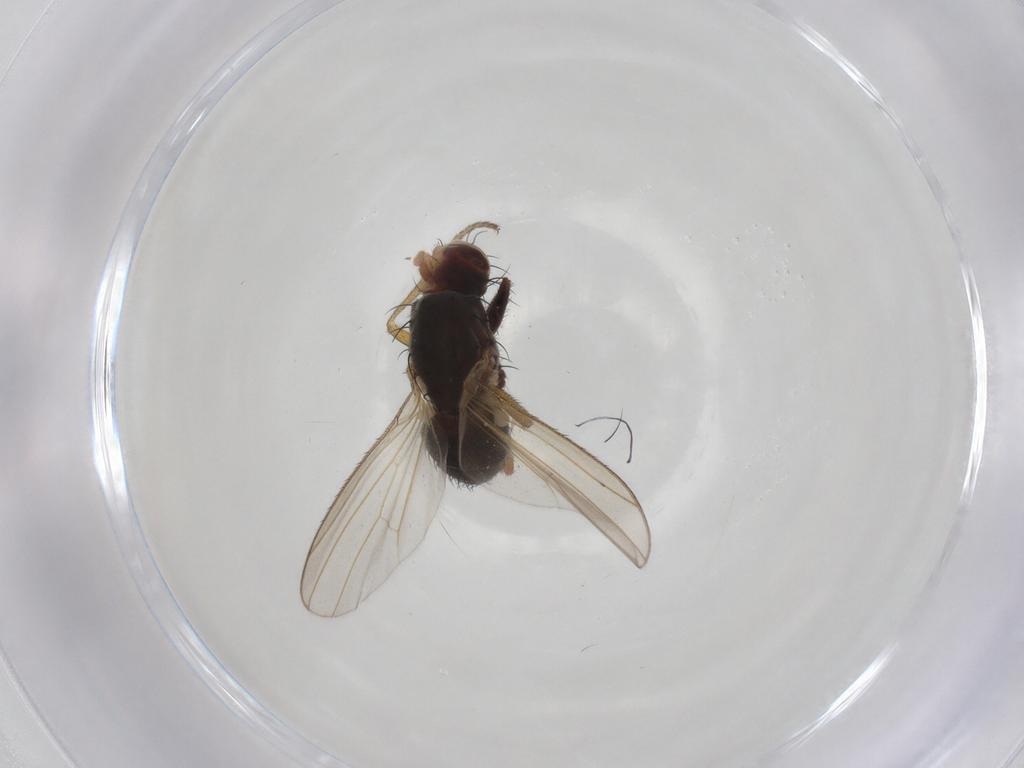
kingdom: Animalia
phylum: Arthropoda
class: Insecta
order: Diptera
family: Heleomyzidae
